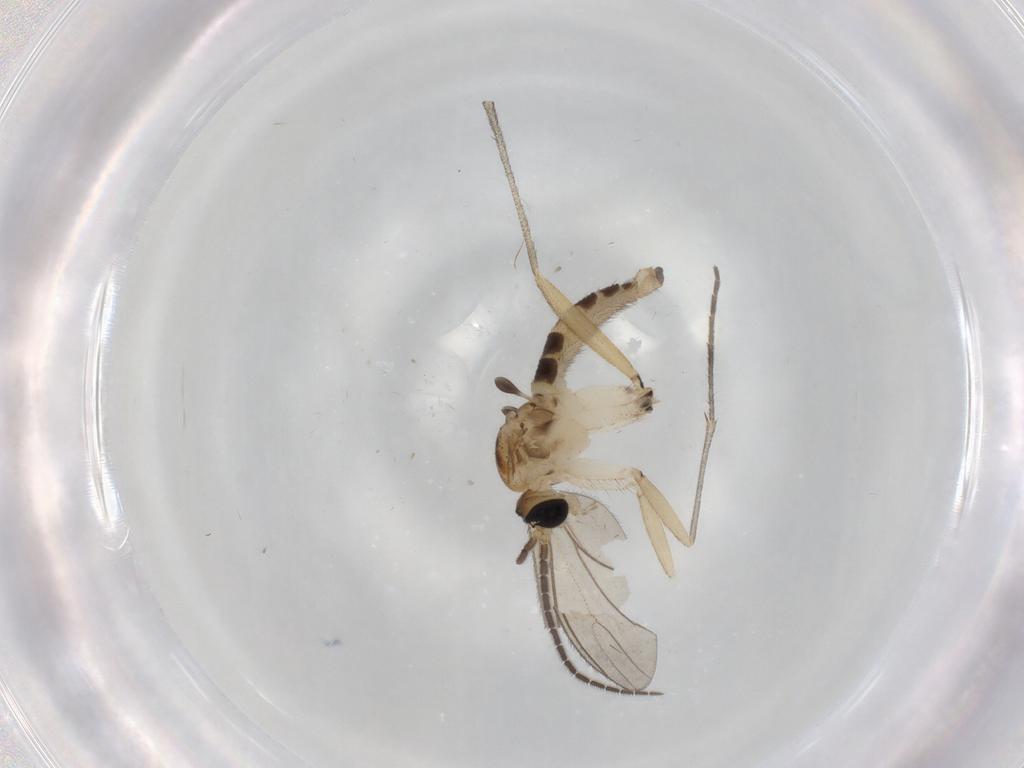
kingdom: Animalia
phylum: Arthropoda
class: Insecta
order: Diptera
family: Sciaridae
